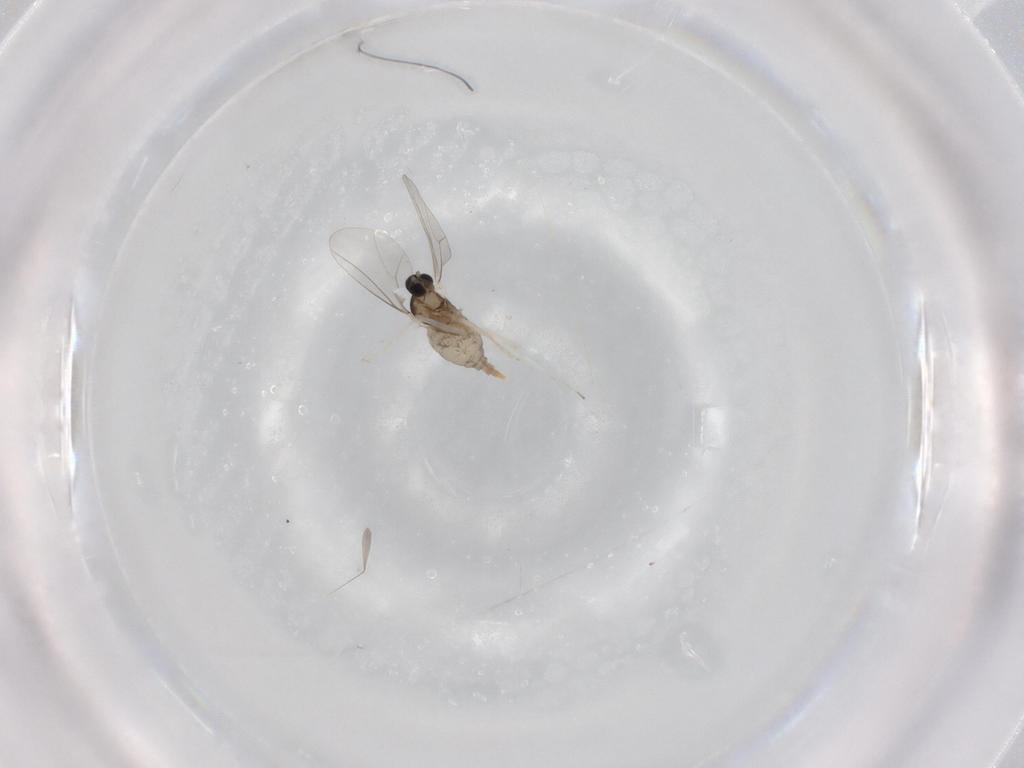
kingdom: Animalia
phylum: Arthropoda
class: Insecta
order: Diptera
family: Cecidomyiidae
